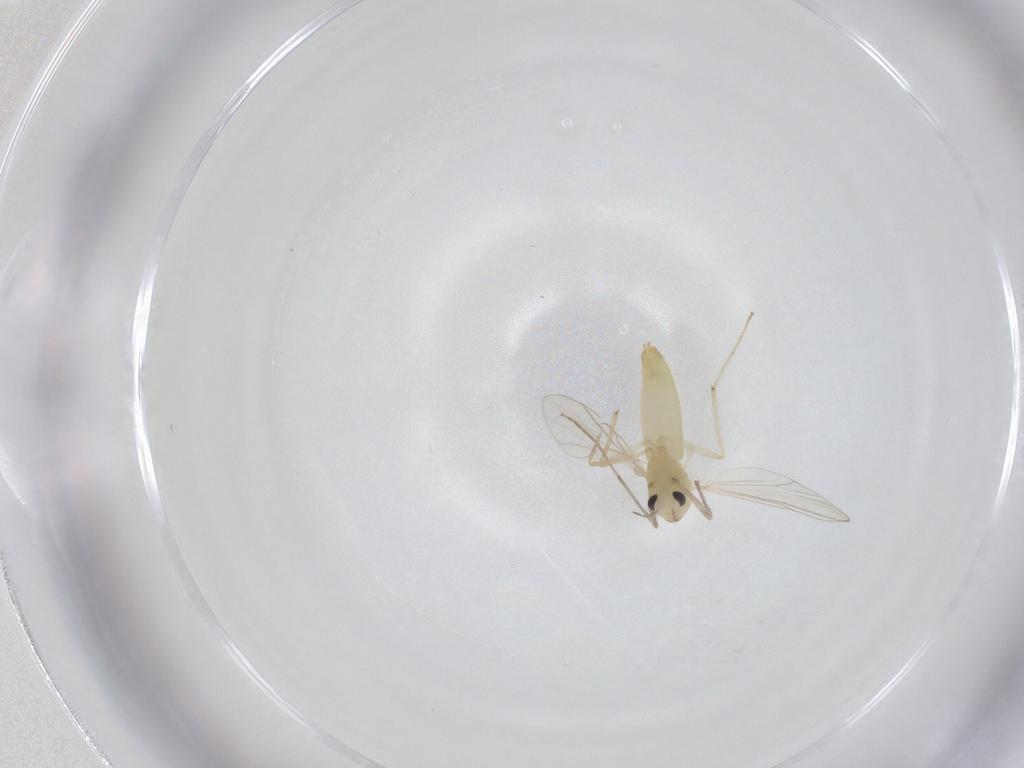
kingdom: Animalia
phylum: Arthropoda
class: Insecta
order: Diptera
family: Chironomidae
